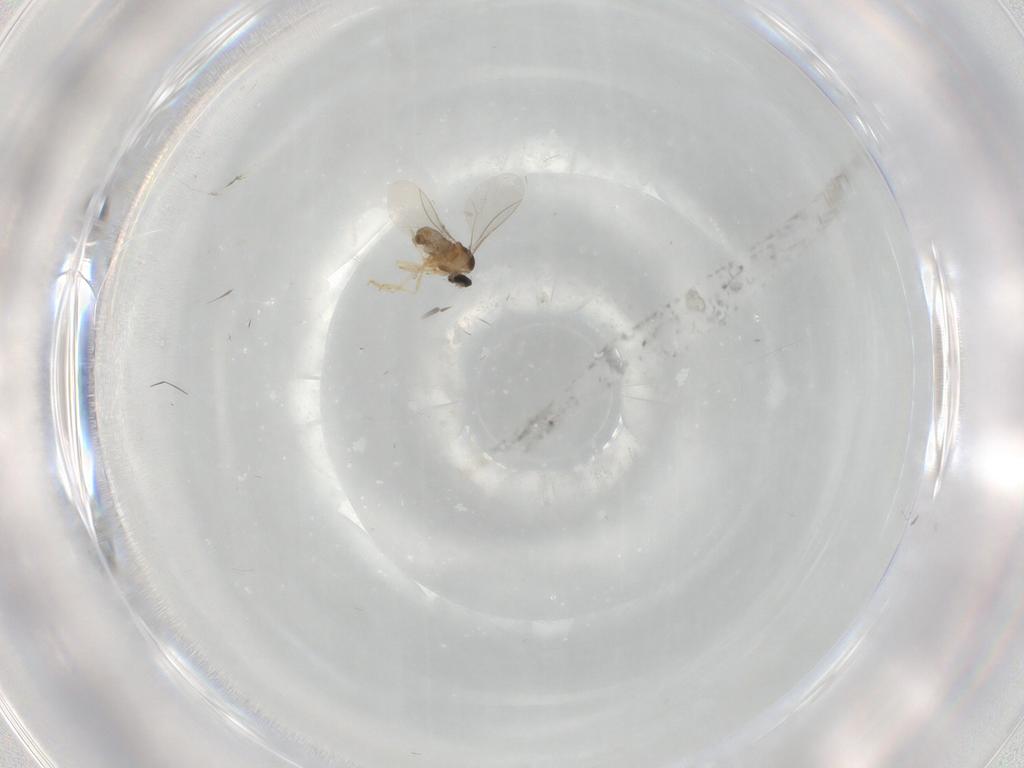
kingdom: Animalia
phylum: Arthropoda
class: Insecta
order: Diptera
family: Cecidomyiidae
